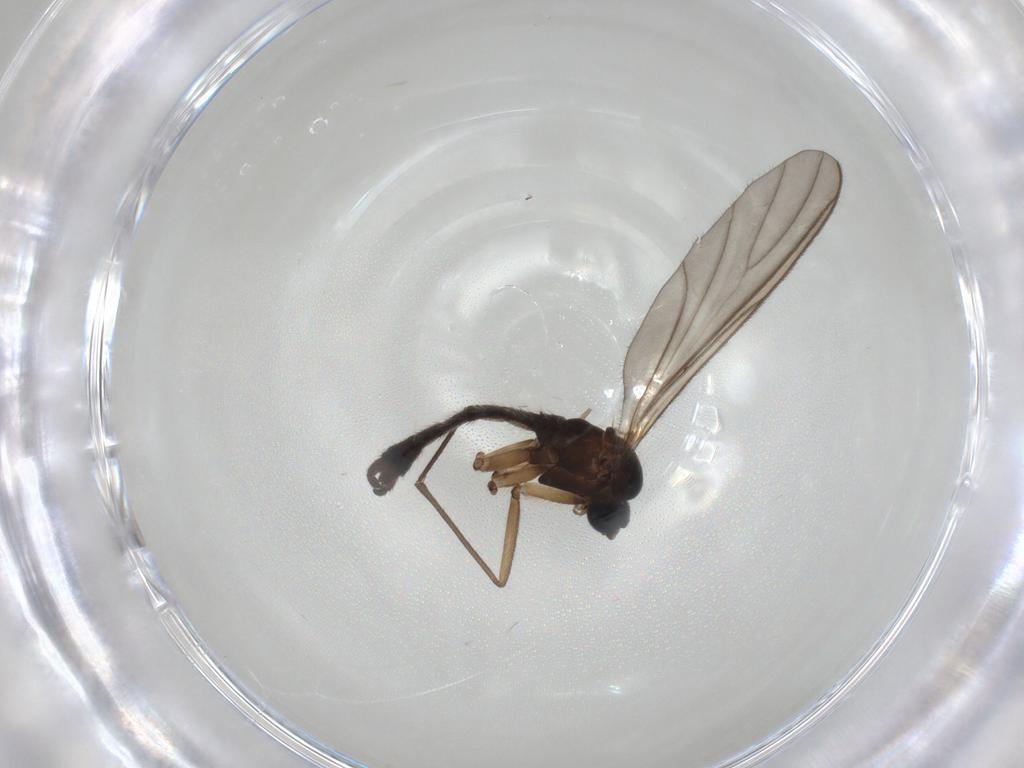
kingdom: Animalia
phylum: Arthropoda
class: Insecta
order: Diptera
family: Sciaridae
